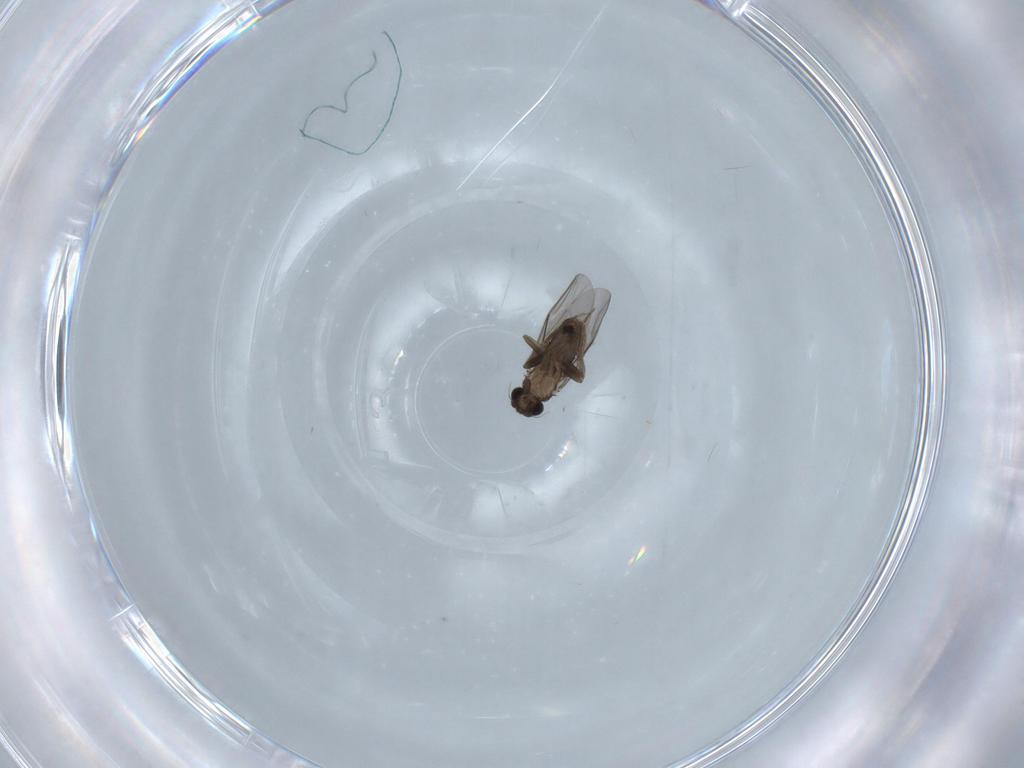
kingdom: Animalia
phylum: Arthropoda
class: Insecta
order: Diptera
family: Phoridae
